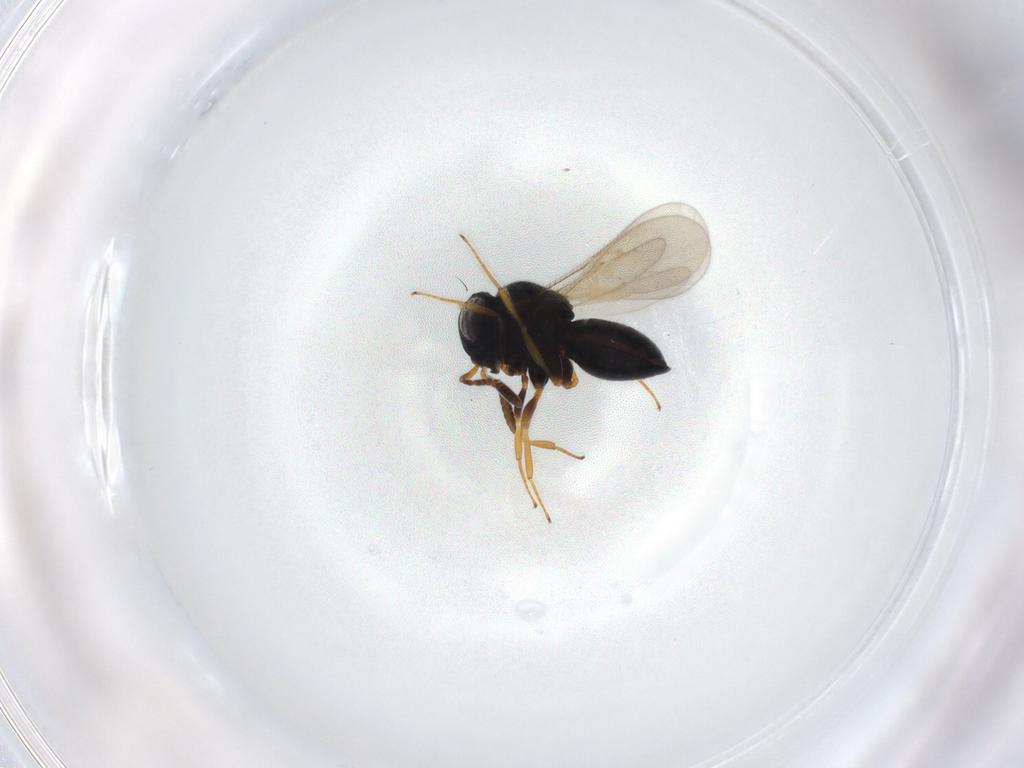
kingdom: Animalia
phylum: Arthropoda
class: Insecta
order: Hymenoptera
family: Scelionidae
